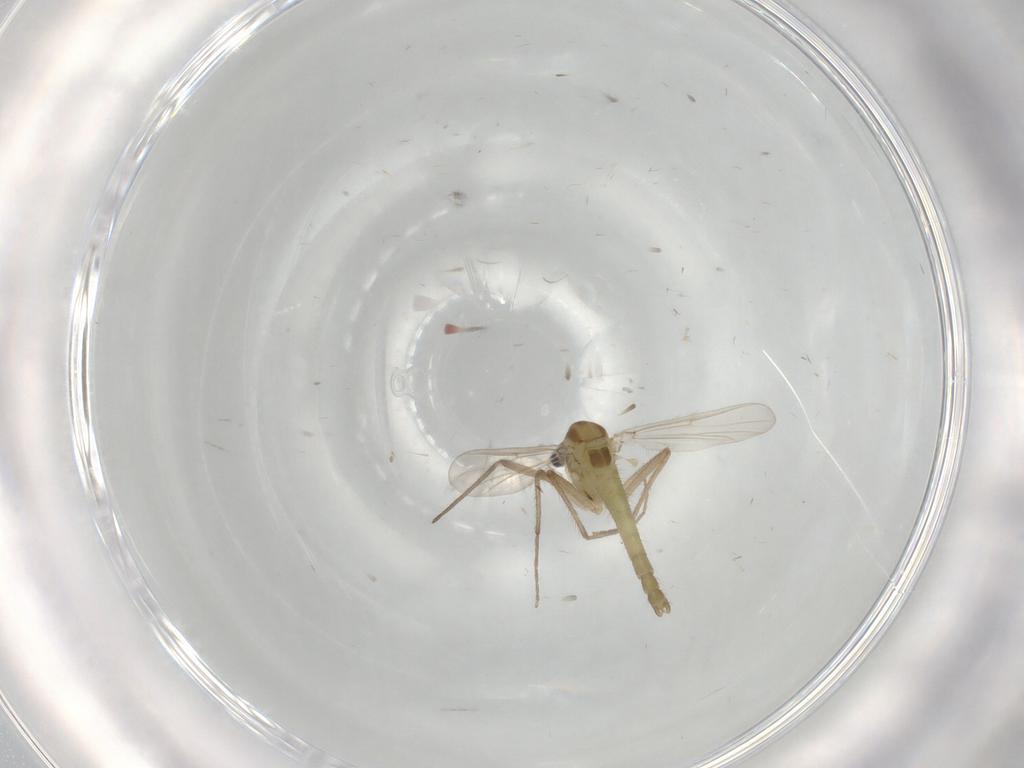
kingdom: Animalia
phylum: Arthropoda
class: Insecta
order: Diptera
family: Chironomidae
